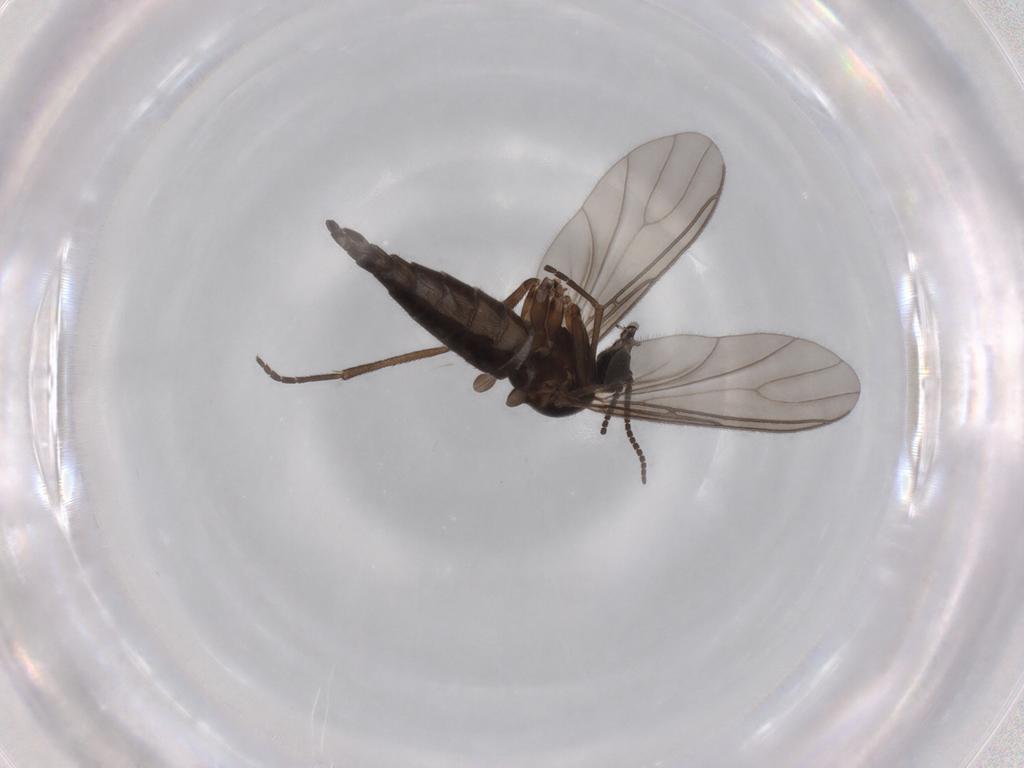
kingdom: Animalia
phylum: Arthropoda
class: Insecta
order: Diptera
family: Sciaridae
